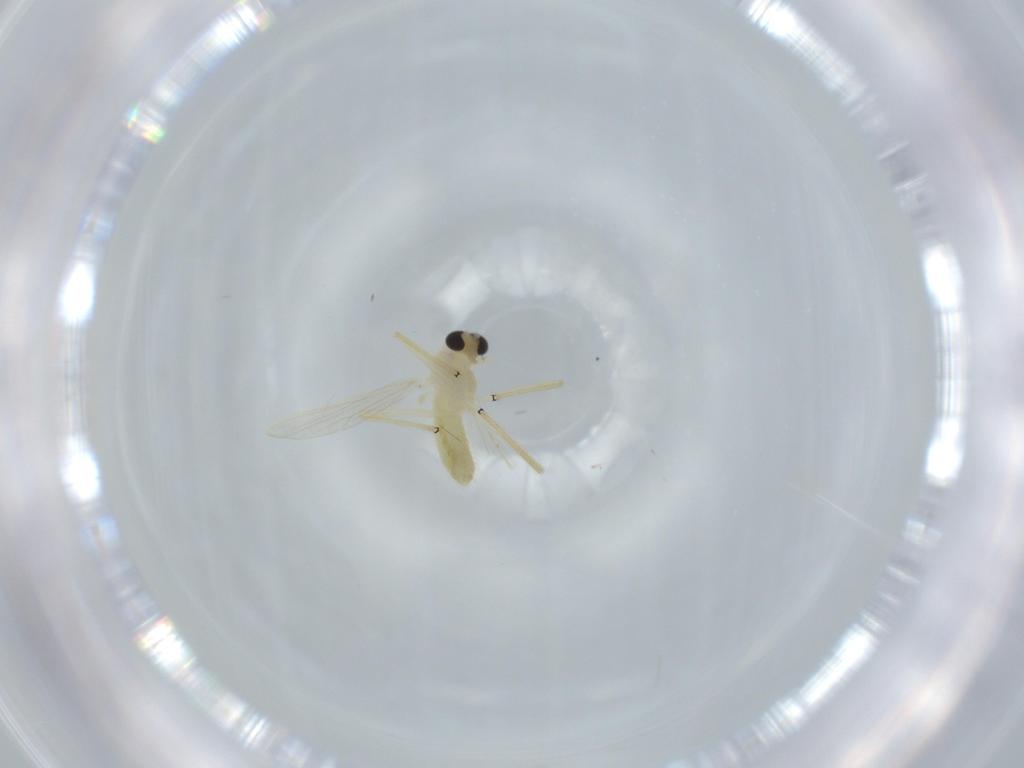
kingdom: Animalia
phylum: Arthropoda
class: Insecta
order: Diptera
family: Chironomidae
